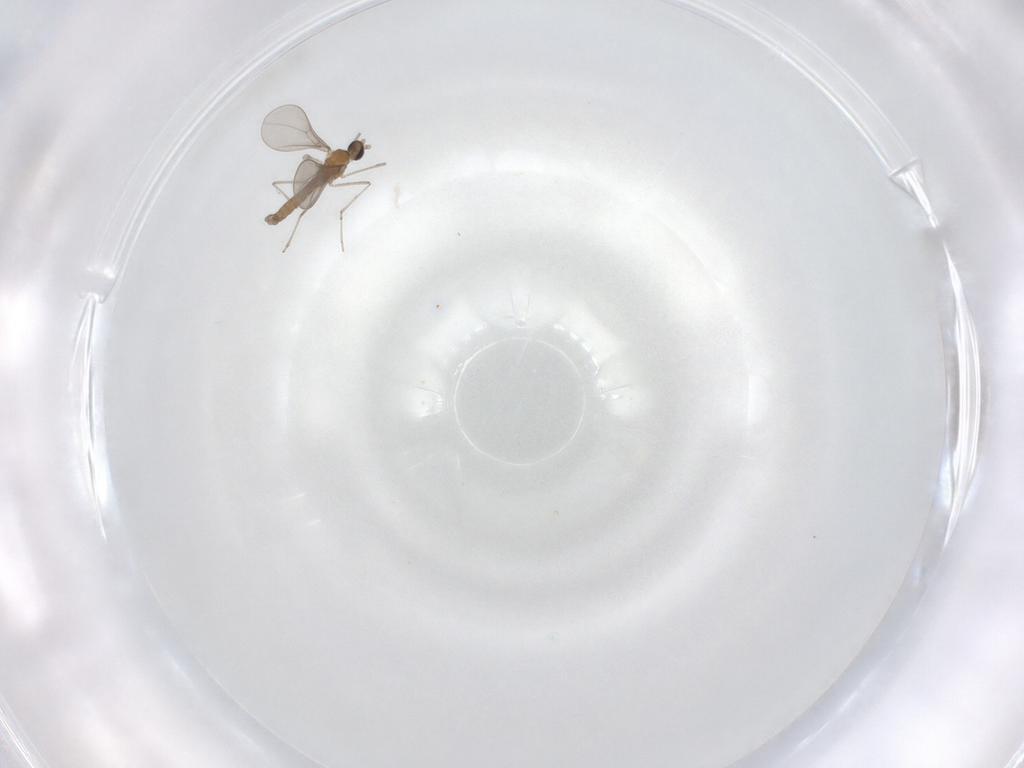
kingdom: Animalia
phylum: Arthropoda
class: Insecta
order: Diptera
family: Cecidomyiidae
